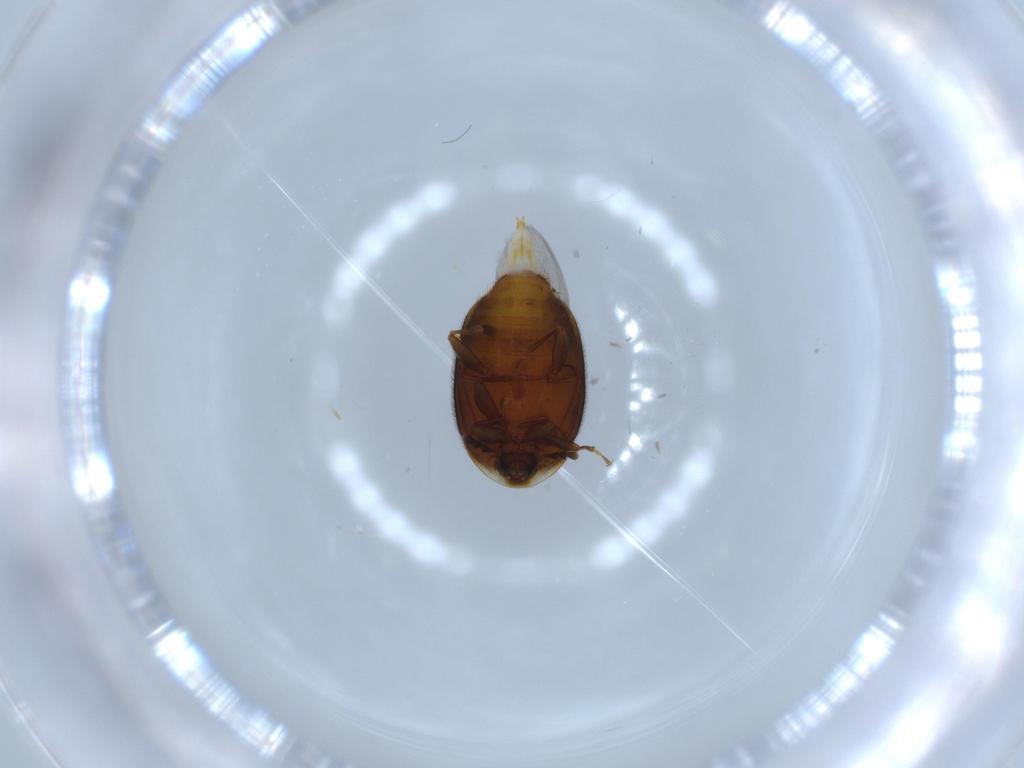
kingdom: Animalia
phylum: Arthropoda
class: Insecta
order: Coleoptera
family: Corylophidae
